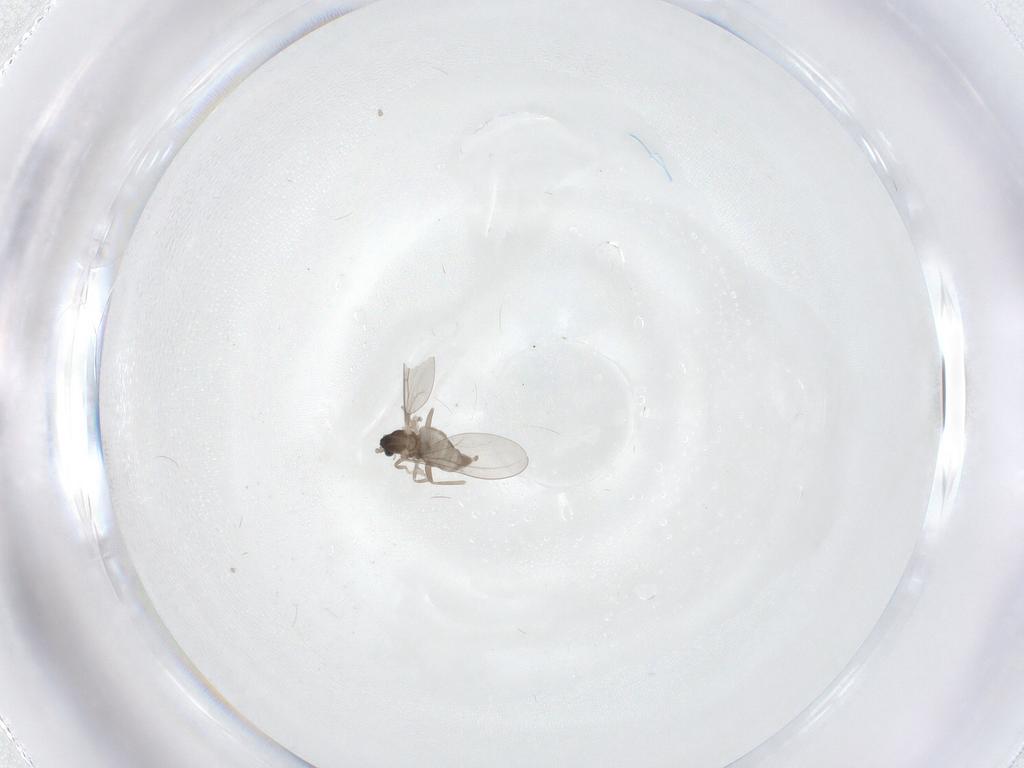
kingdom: Animalia
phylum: Arthropoda
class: Insecta
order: Diptera
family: Cecidomyiidae
